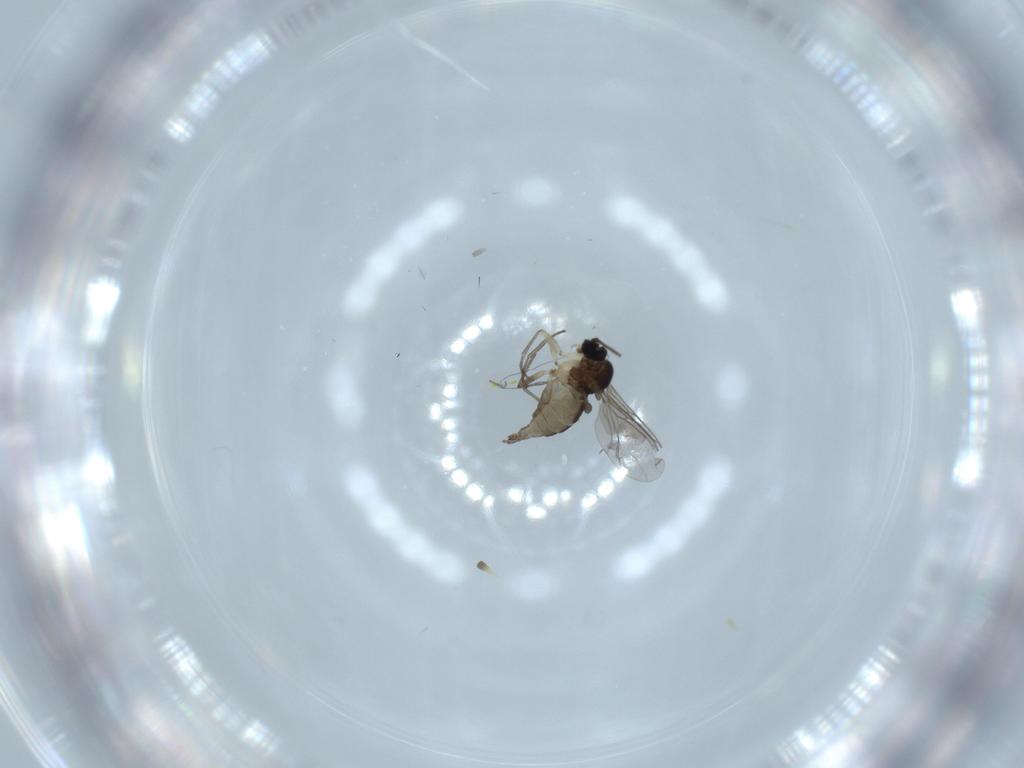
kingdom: Animalia
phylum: Arthropoda
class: Insecta
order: Diptera
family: Sciaridae
